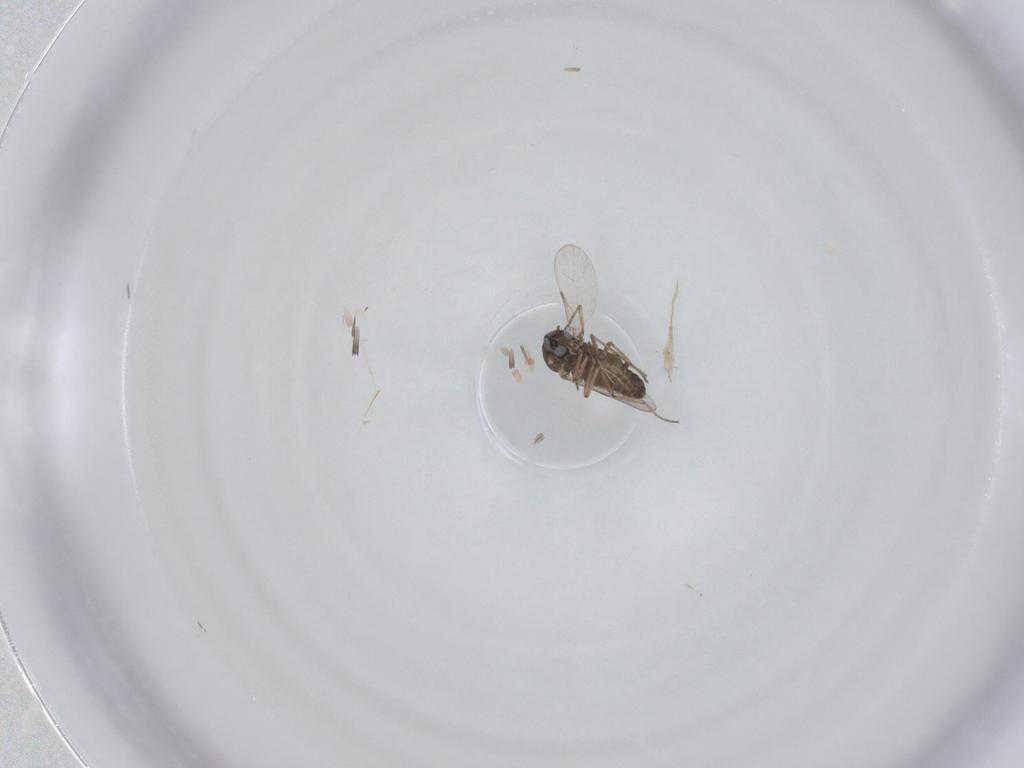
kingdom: Animalia
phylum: Arthropoda
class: Insecta
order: Diptera
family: Ceratopogonidae
